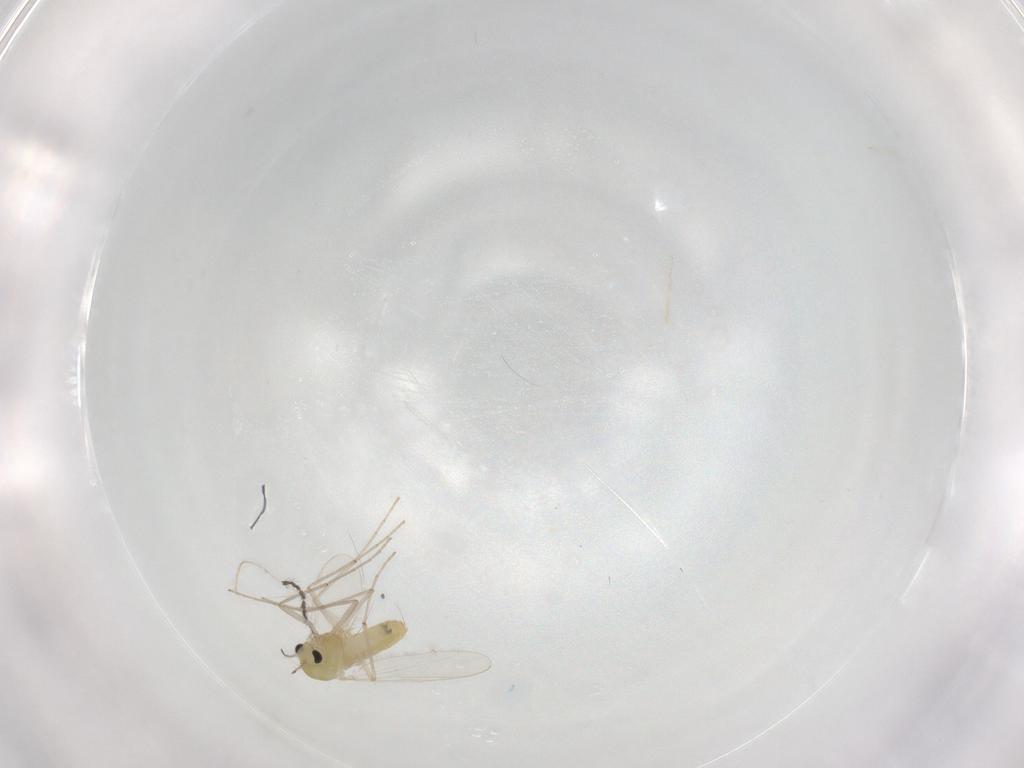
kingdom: Animalia
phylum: Arthropoda
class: Insecta
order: Diptera
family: Chironomidae
